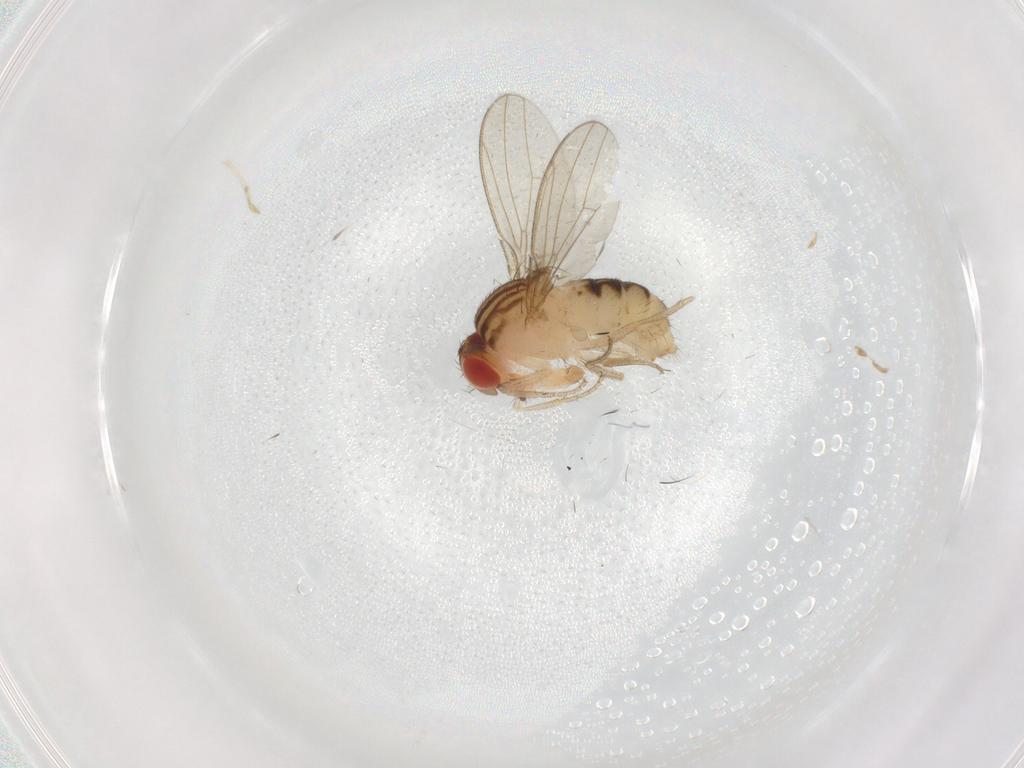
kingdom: Animalia
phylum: Arthropoda
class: Insecta
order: Diptera
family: Drosophilidae
